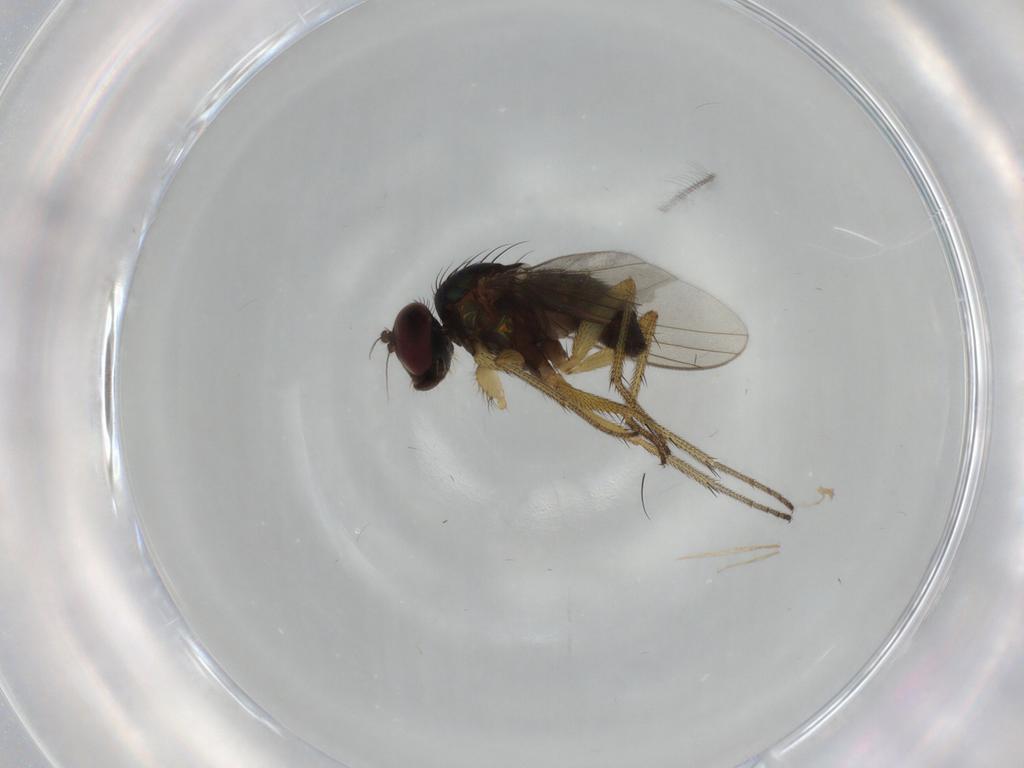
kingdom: Animalia
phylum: Arthropoda
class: Insecta
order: Diptera
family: Dolichopodidae
